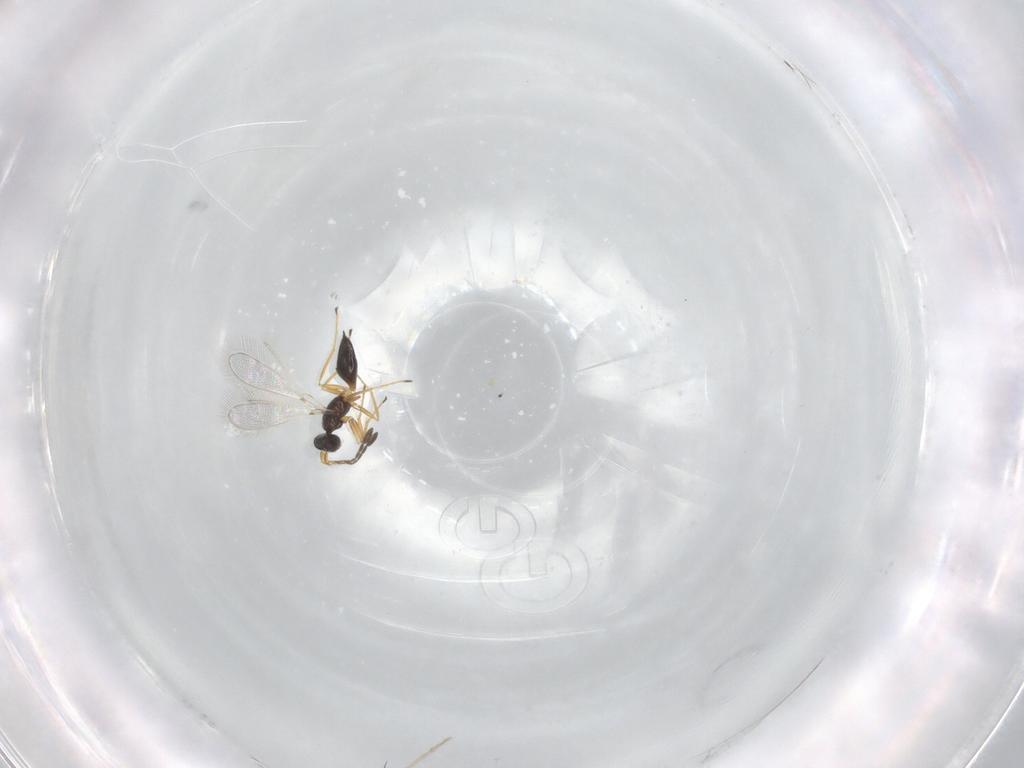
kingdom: Animalia
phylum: Arthropoda
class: Insecta
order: Hymenoptera
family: Mymaridae
